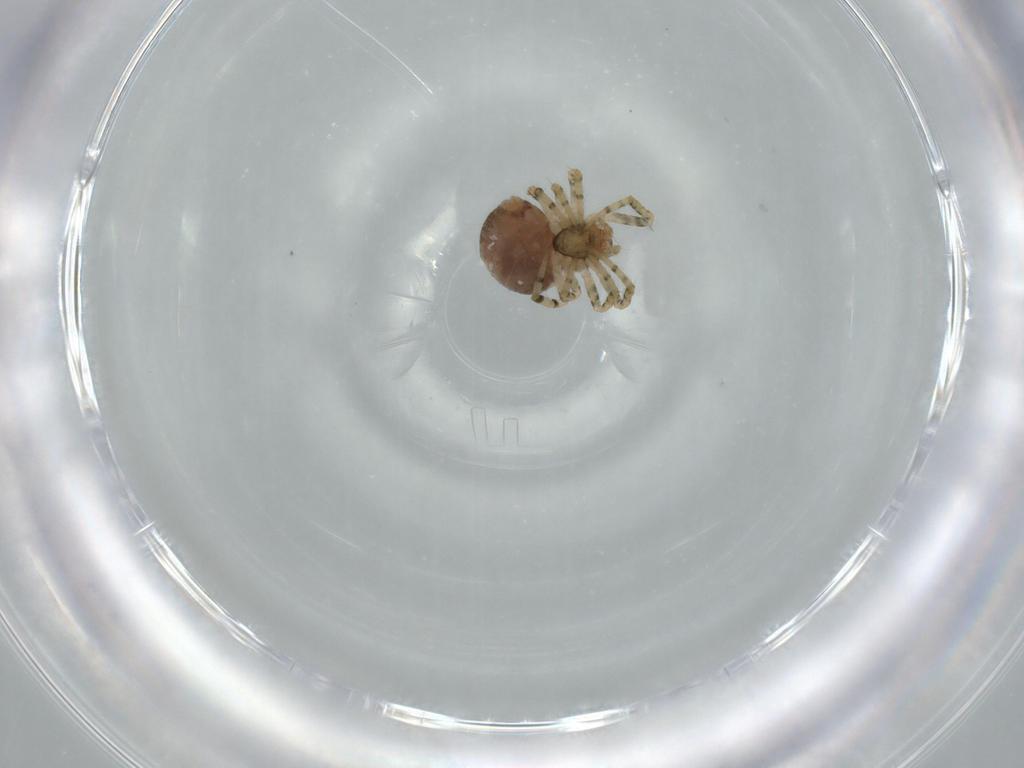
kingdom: Animalia
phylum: Arthropoda
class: Arachnida
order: Araneae
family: Theridiidae
